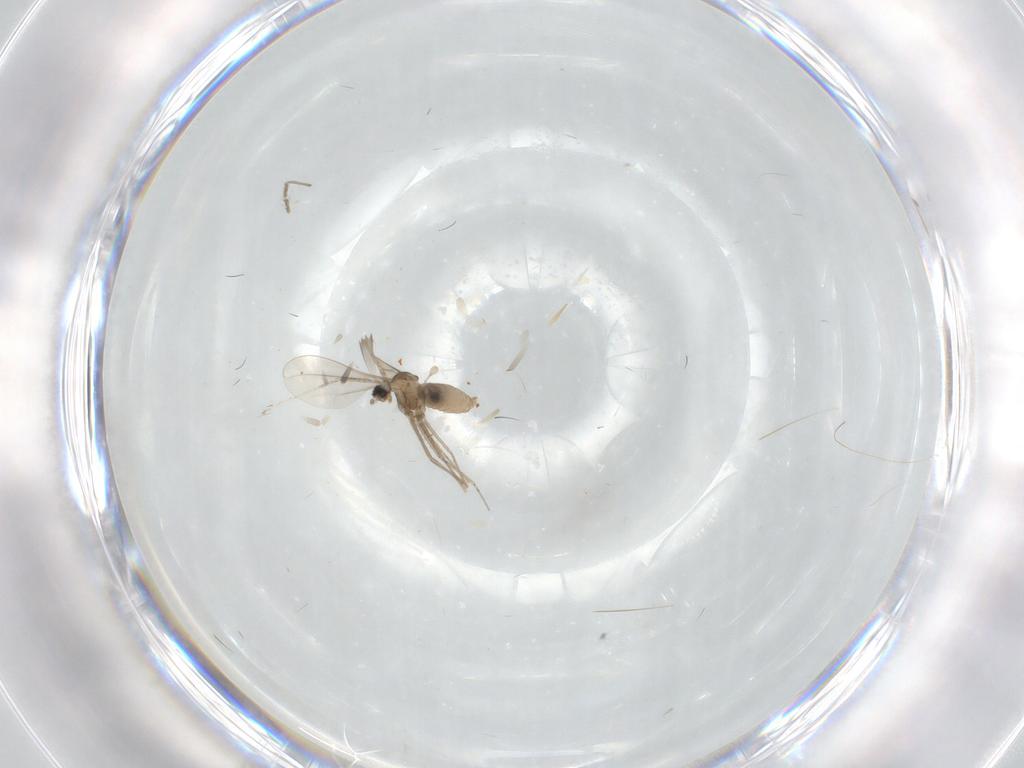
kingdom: Animalia
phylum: Arthropoda
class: Insecta
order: Diptera
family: Cecidomyiidae
